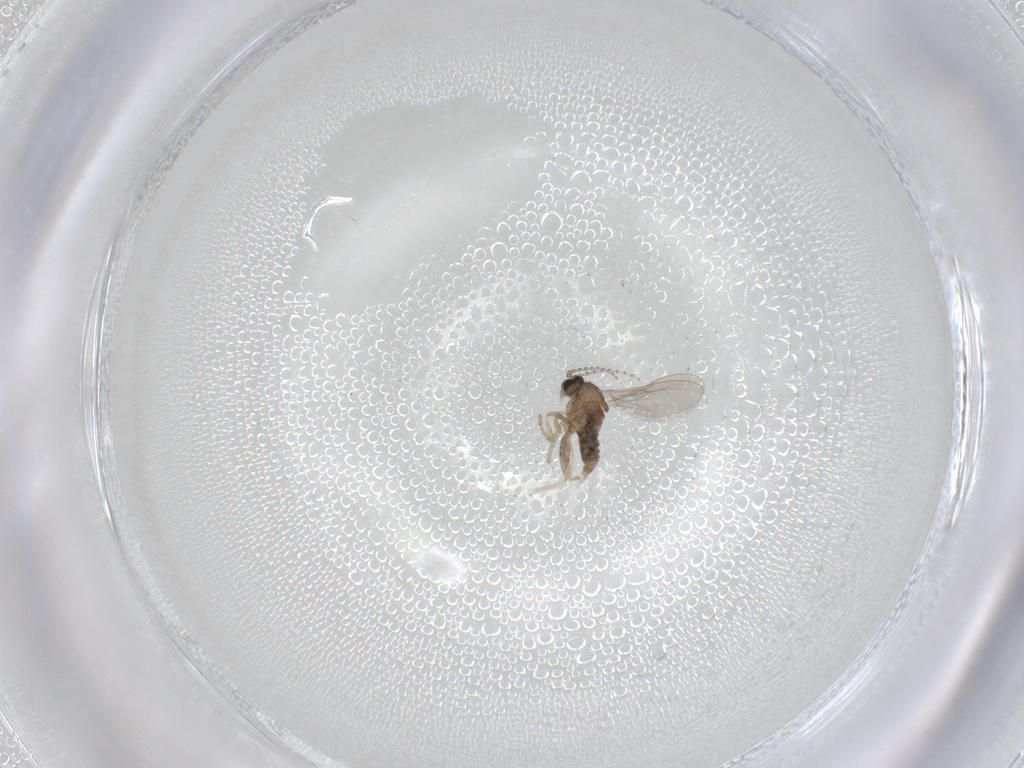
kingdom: Animalia
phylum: Arthropoda
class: Insecta
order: Diptera
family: Cecidomyiidae
